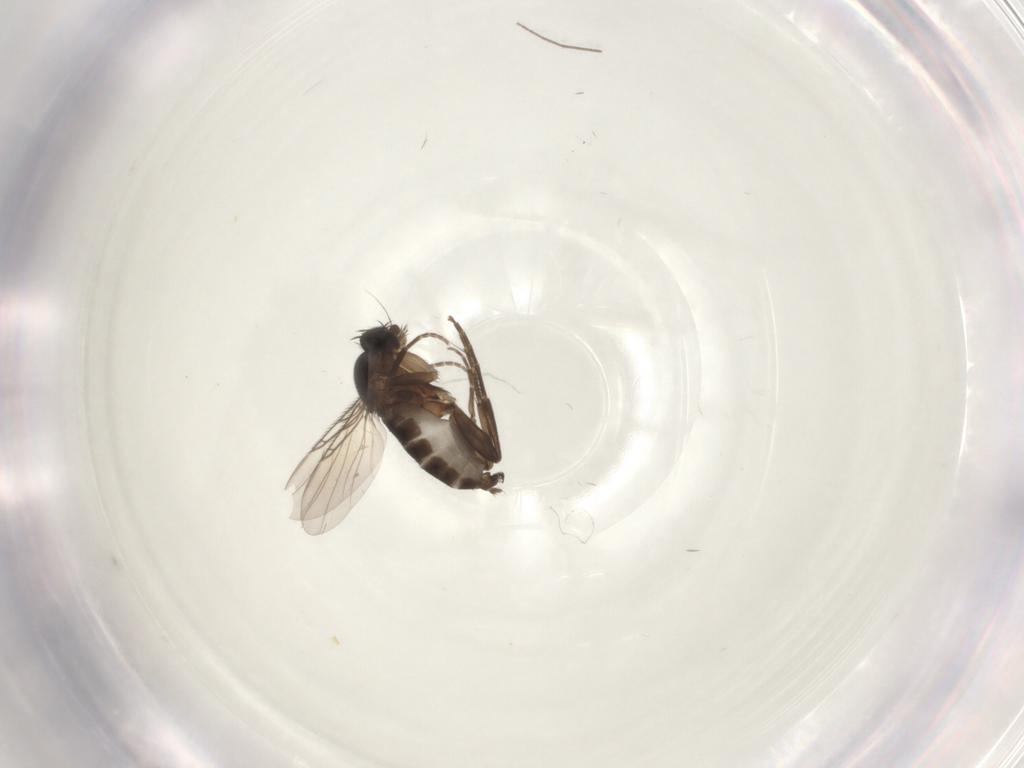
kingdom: Animalia
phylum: Arthropoda
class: Insecta
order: Diptera
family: Phoridae
